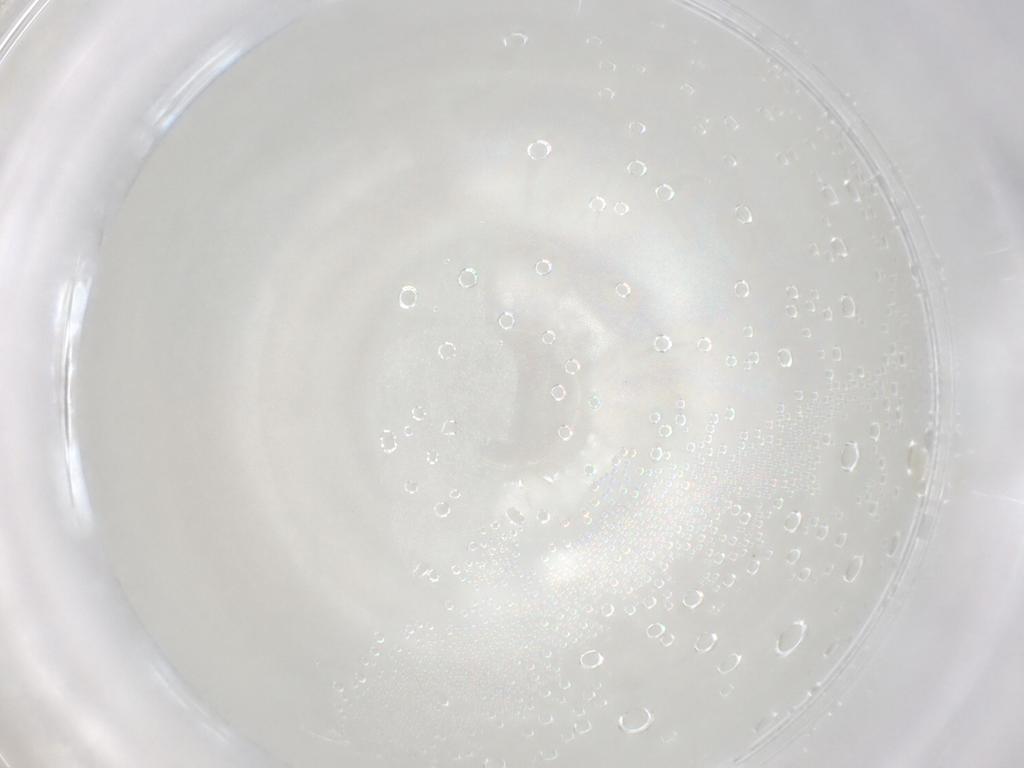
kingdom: Animalia
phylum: Arthropoda
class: Arachnida
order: Trombidiformes
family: Eupodidae
